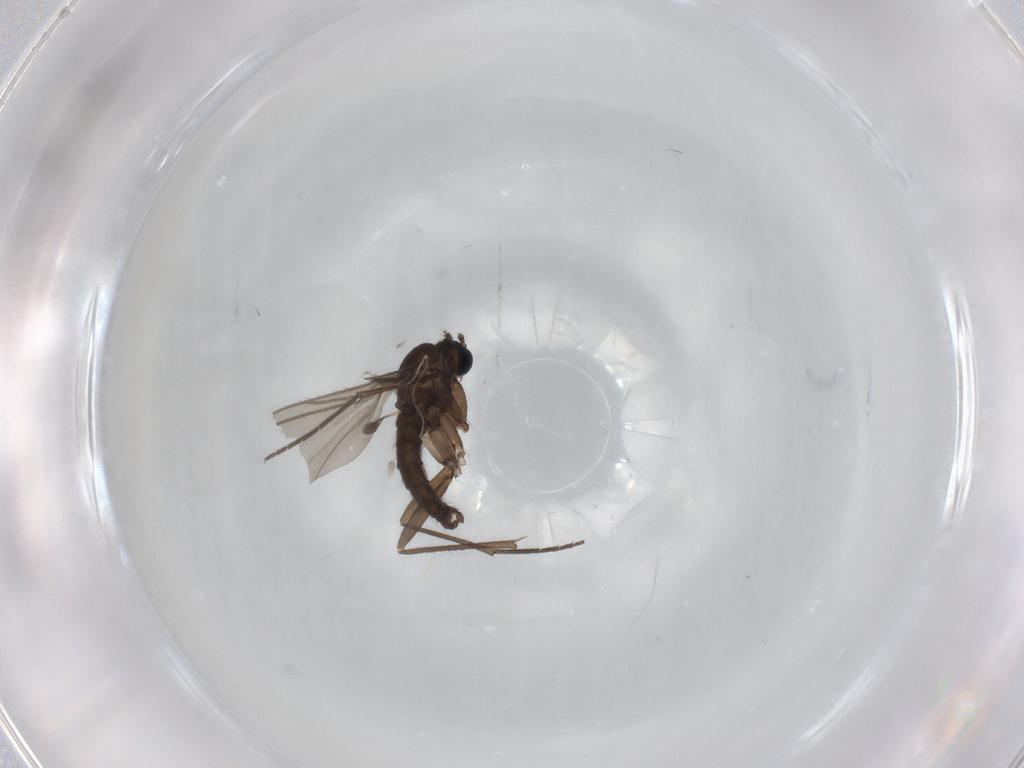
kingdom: Animalia
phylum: Arthropoda
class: Insecta
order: Diptera
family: Sciaridae
